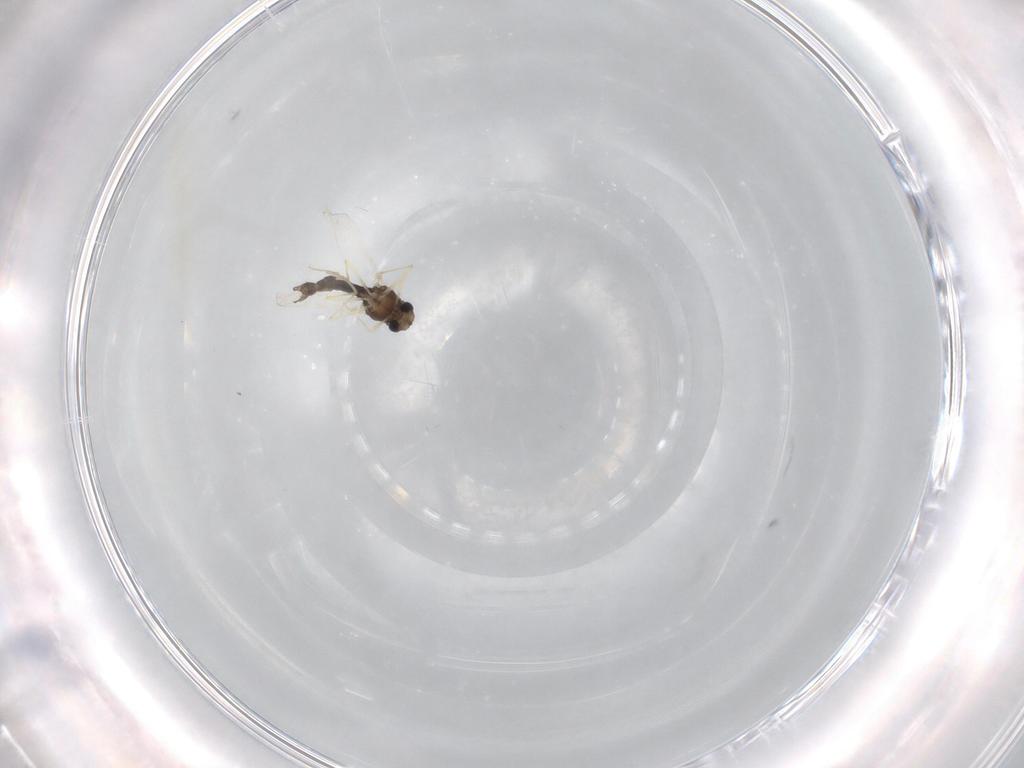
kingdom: Animalia
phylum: Arthropoda
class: Insecta
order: Diptera
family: Chironomidae
